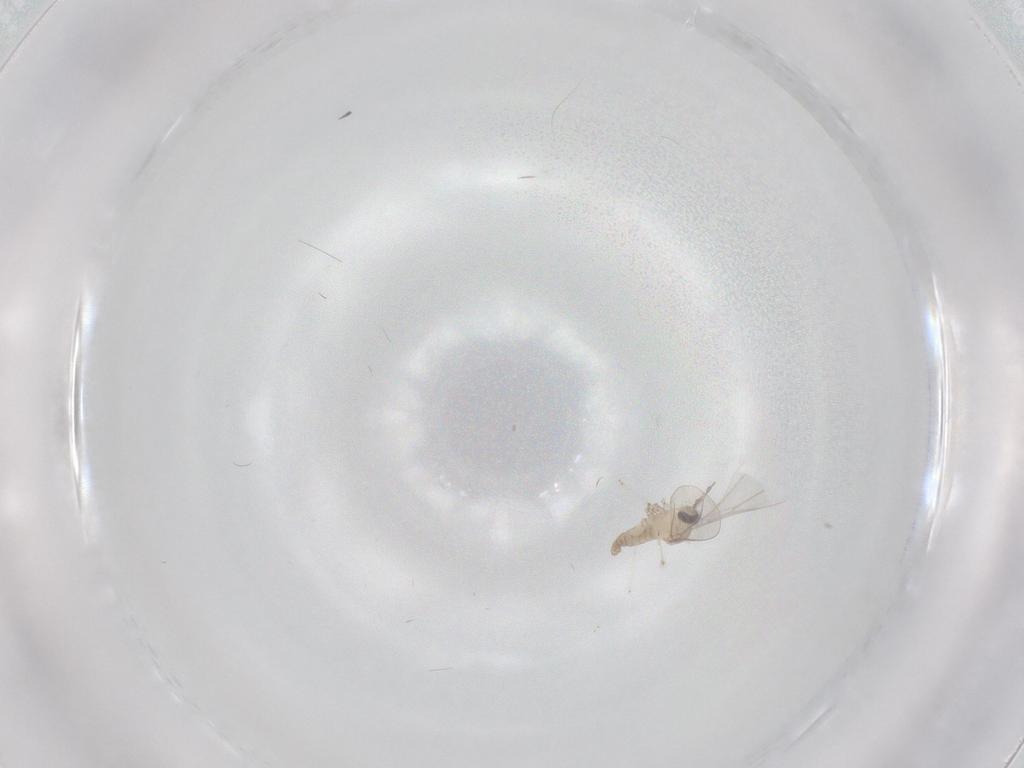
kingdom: Animalia
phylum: Arthropoda
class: Insecta
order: Diptera
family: Cecidomyiidae
